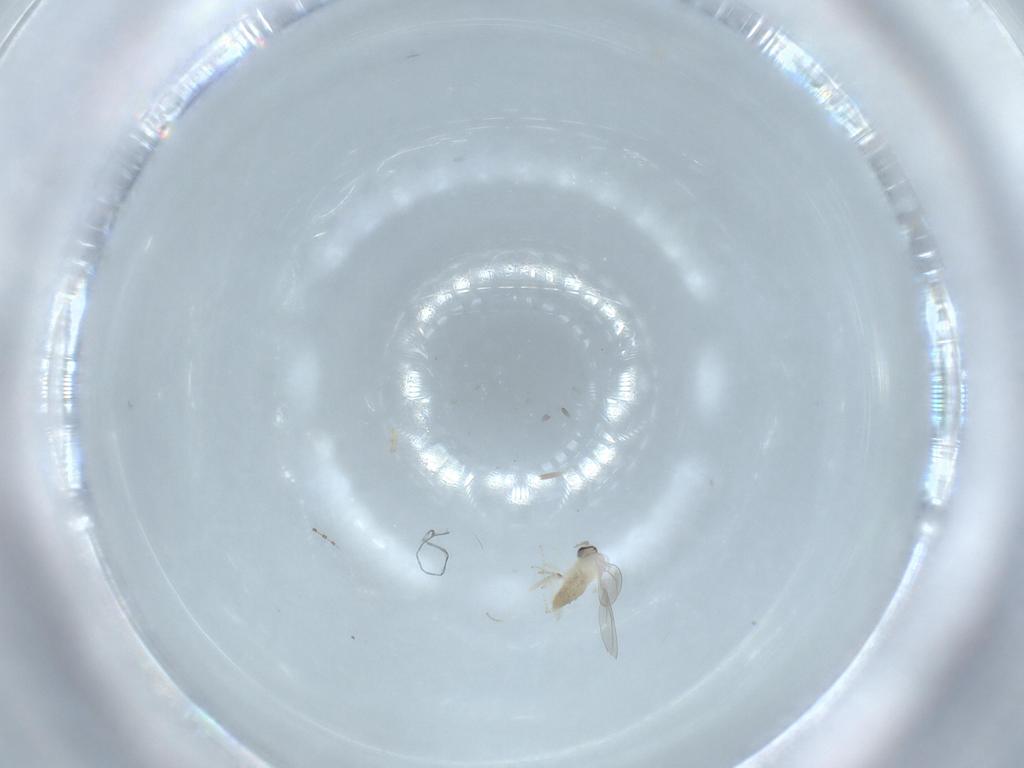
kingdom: Animalia
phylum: Arthropoda
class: Insecta
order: Diptera
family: Cecidomyiidae
